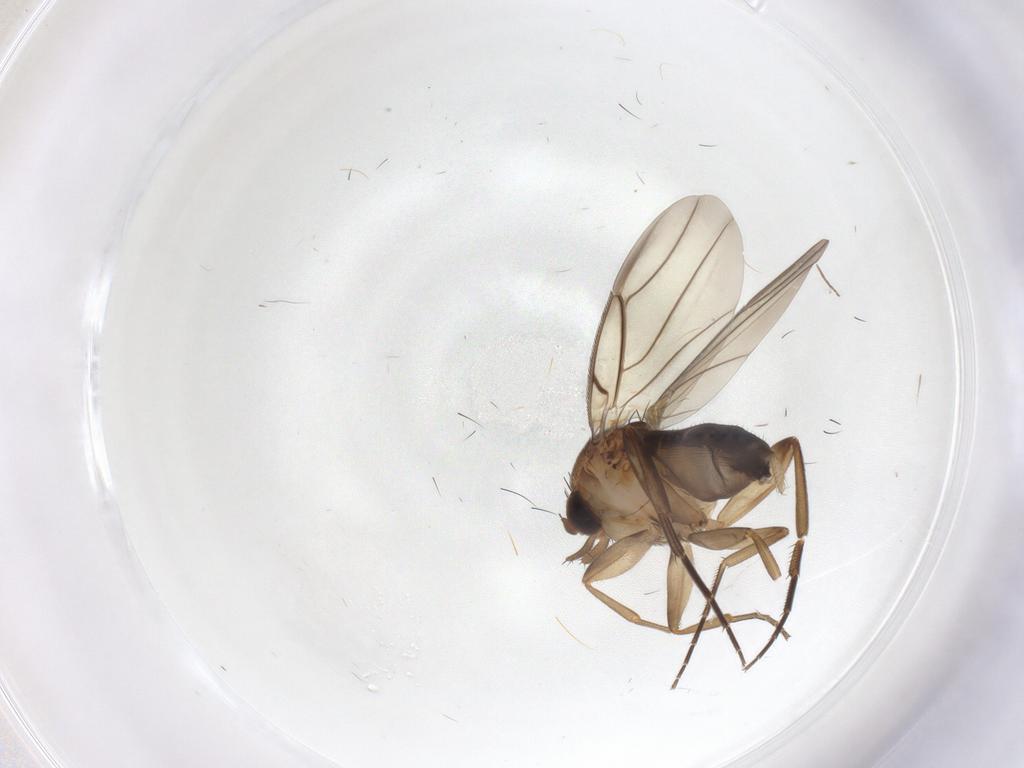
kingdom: Animalia
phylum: Arthropoda
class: Insecta
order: Diptera
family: Phoridae
